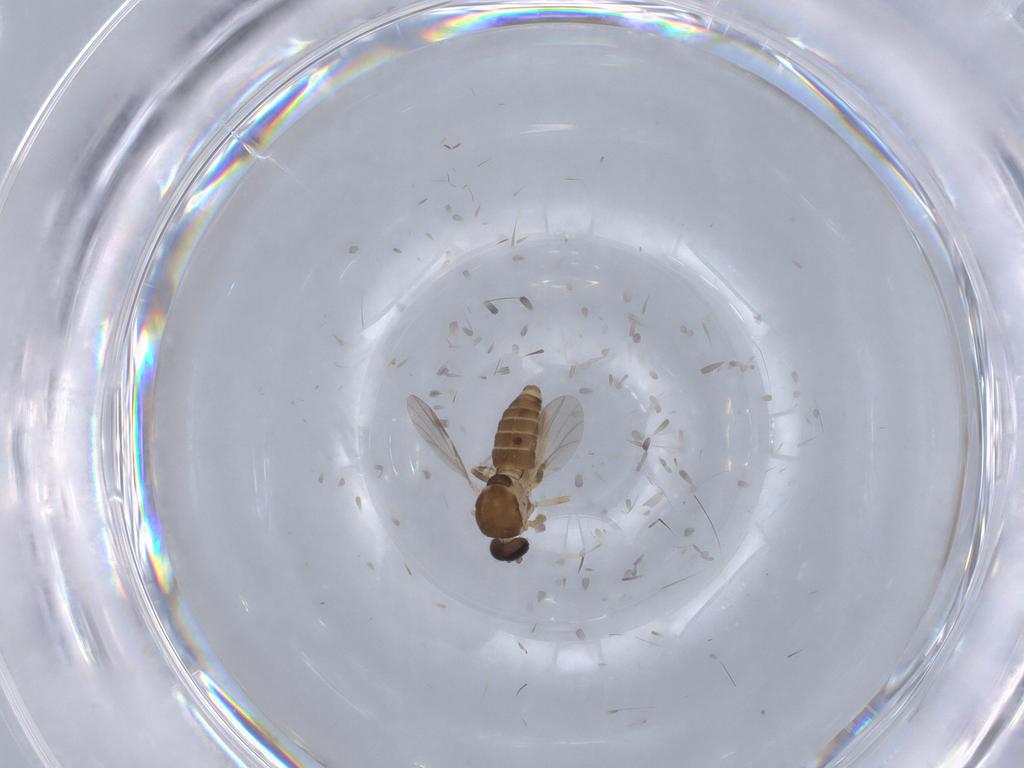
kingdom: Animalia
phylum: Arthropoda
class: Insecta
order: Diptera
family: Ceratopogonidae
